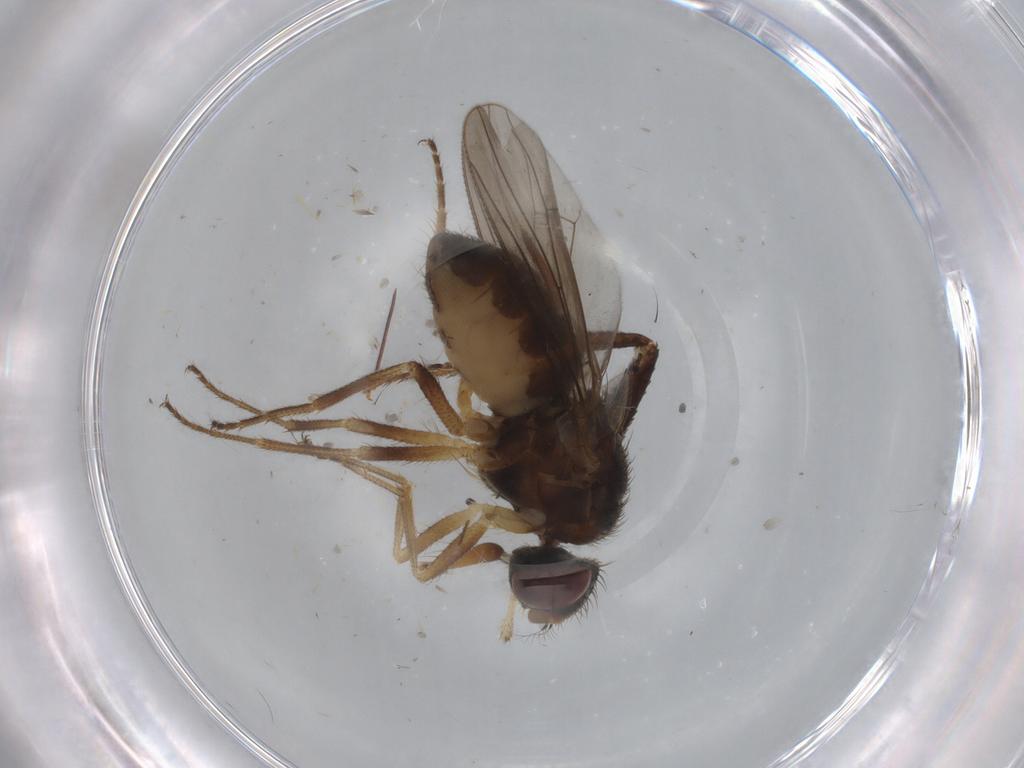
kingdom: Animalia
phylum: Arthropoda
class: Insecta
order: Diptera
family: Muscidae
